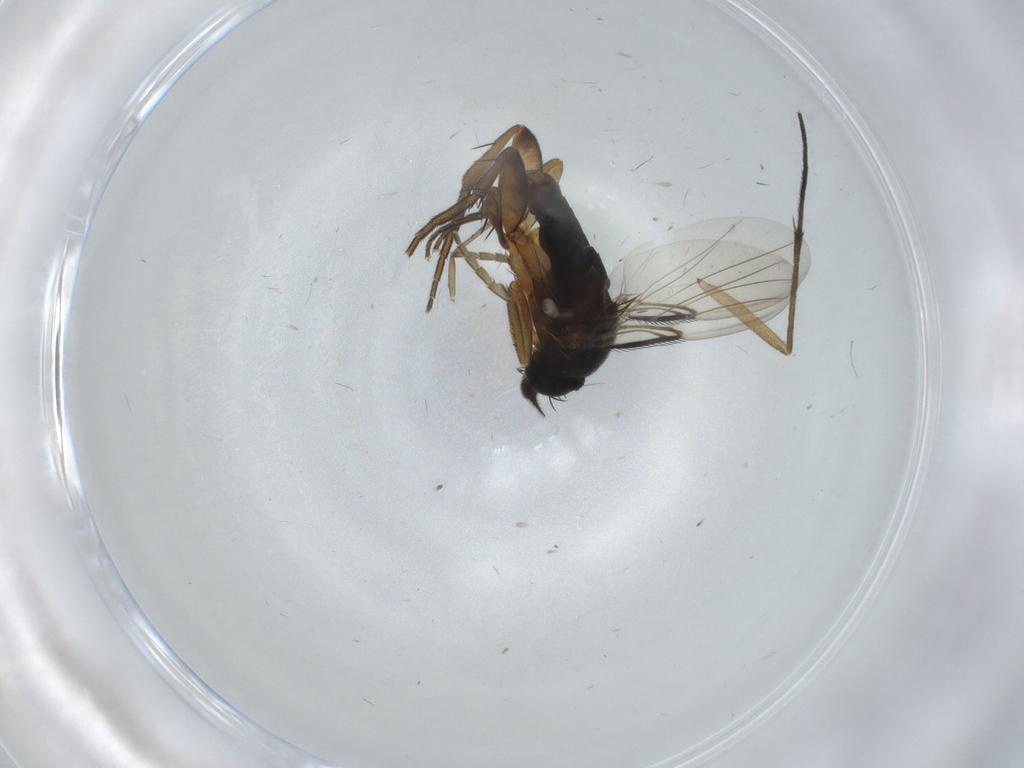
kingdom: Animalia
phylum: Arthropoda
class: Insecta
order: Diptera
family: Phoridae
